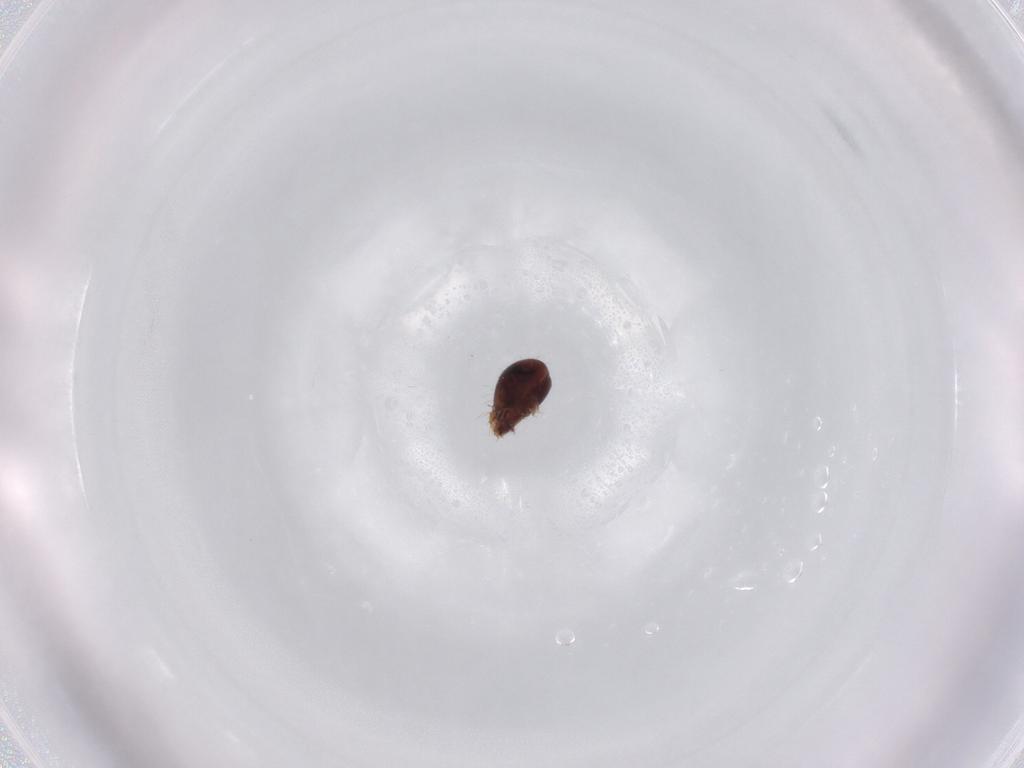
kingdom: Animalia
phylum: Arthropoda
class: Arachnida
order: Sarcoptiformes
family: Humerobatidae
